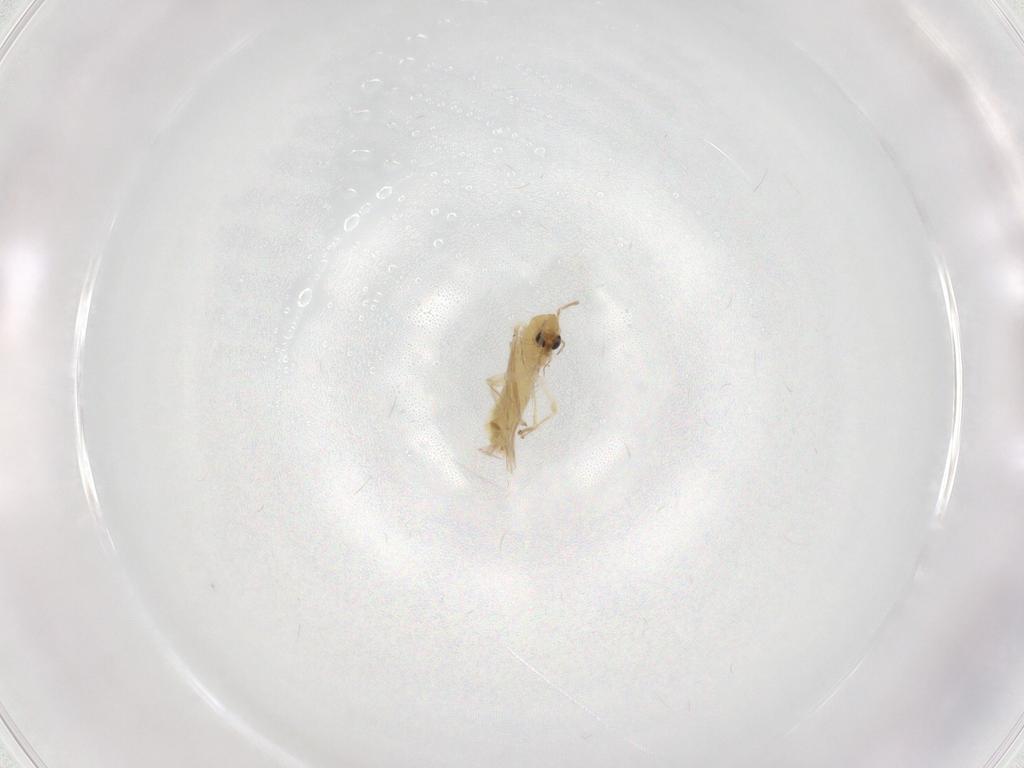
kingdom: Animalia
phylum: Arthropoda
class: Insecta
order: Diptera
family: Chironomidae
